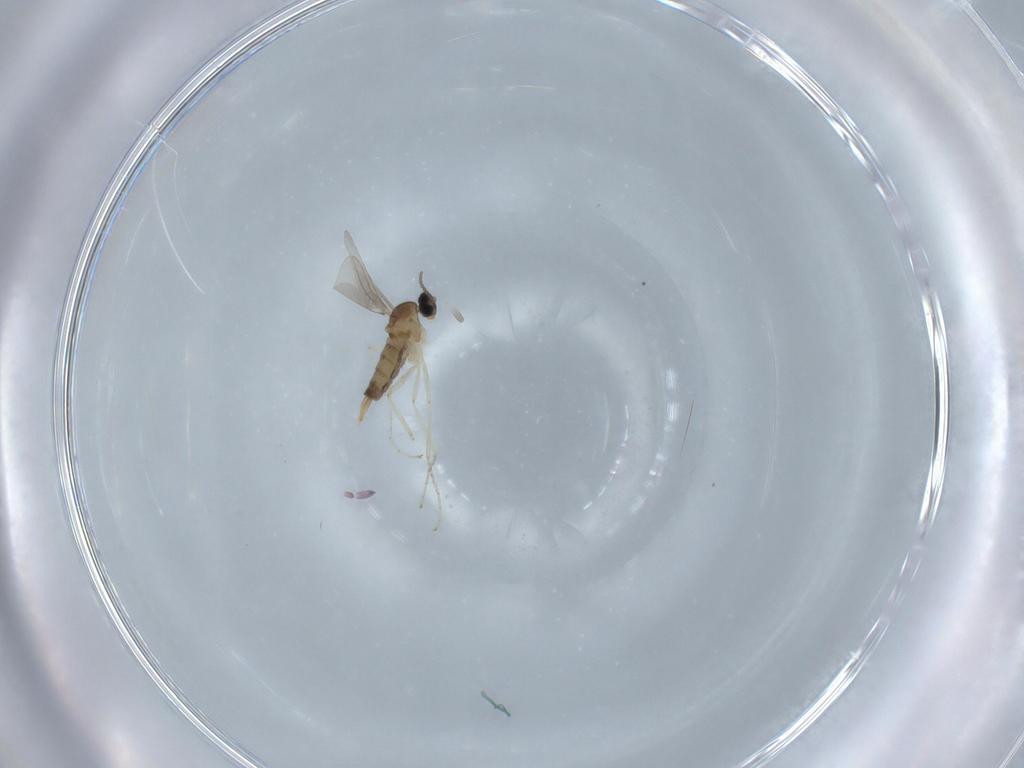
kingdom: Animalia
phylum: Arthropoda
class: Insecta
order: Diptera
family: Cecidomyiidae
